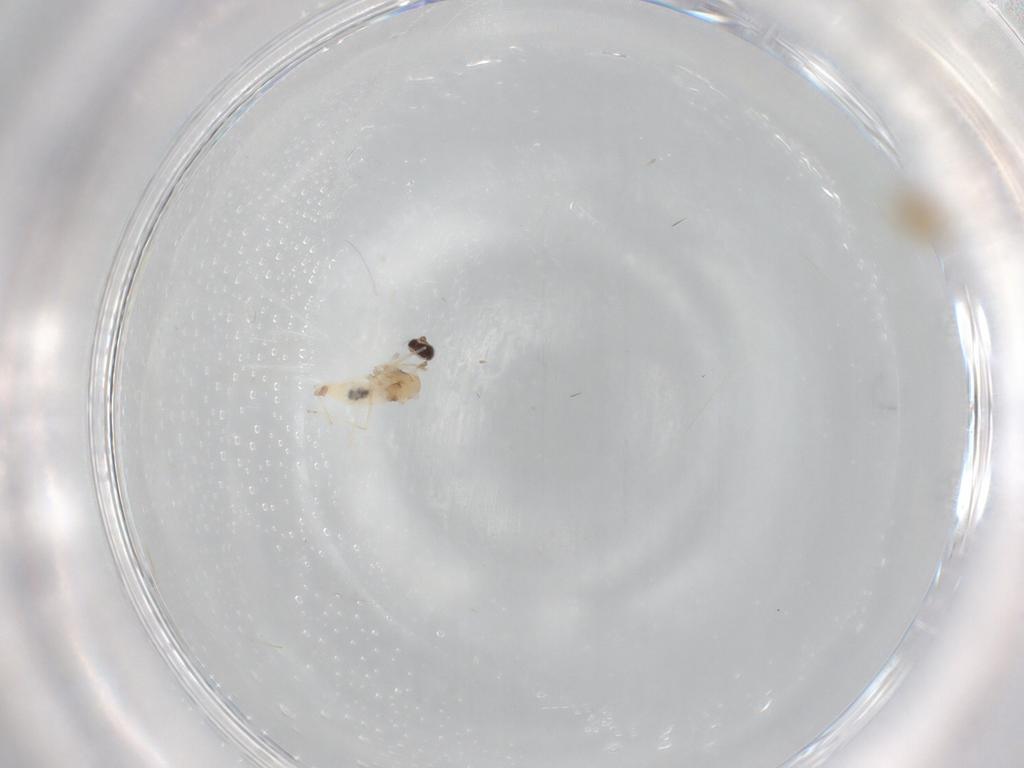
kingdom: Animalia
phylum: Arthropoda
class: Insecta
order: Diptera
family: Chironomidae
